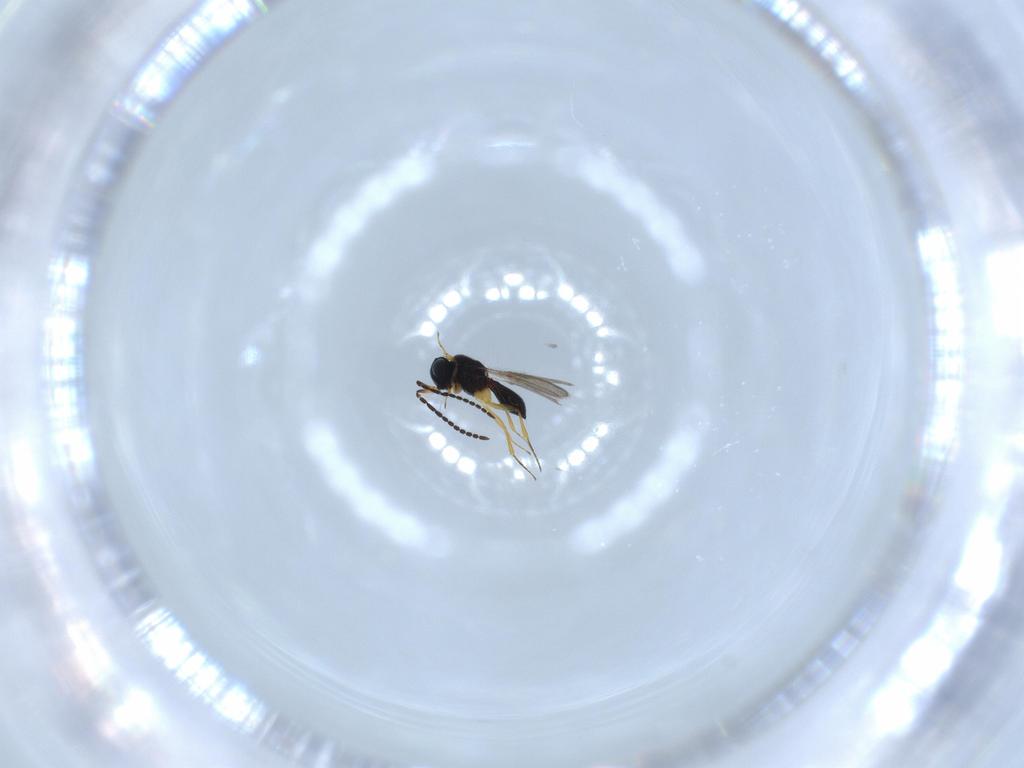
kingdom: Animalia
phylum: Arthropoda
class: Insecta
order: Hymenoptera
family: Scelionidae
